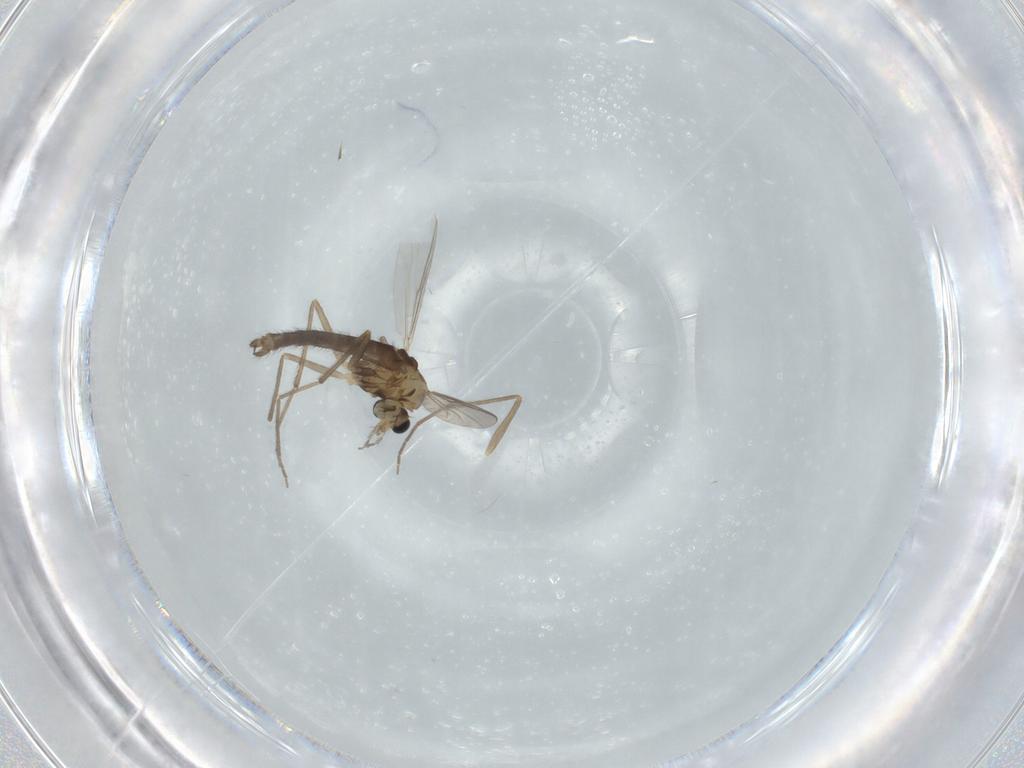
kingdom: Animalia
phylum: Arthropoda
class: Insecta
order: Diptera
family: Chironomidae
